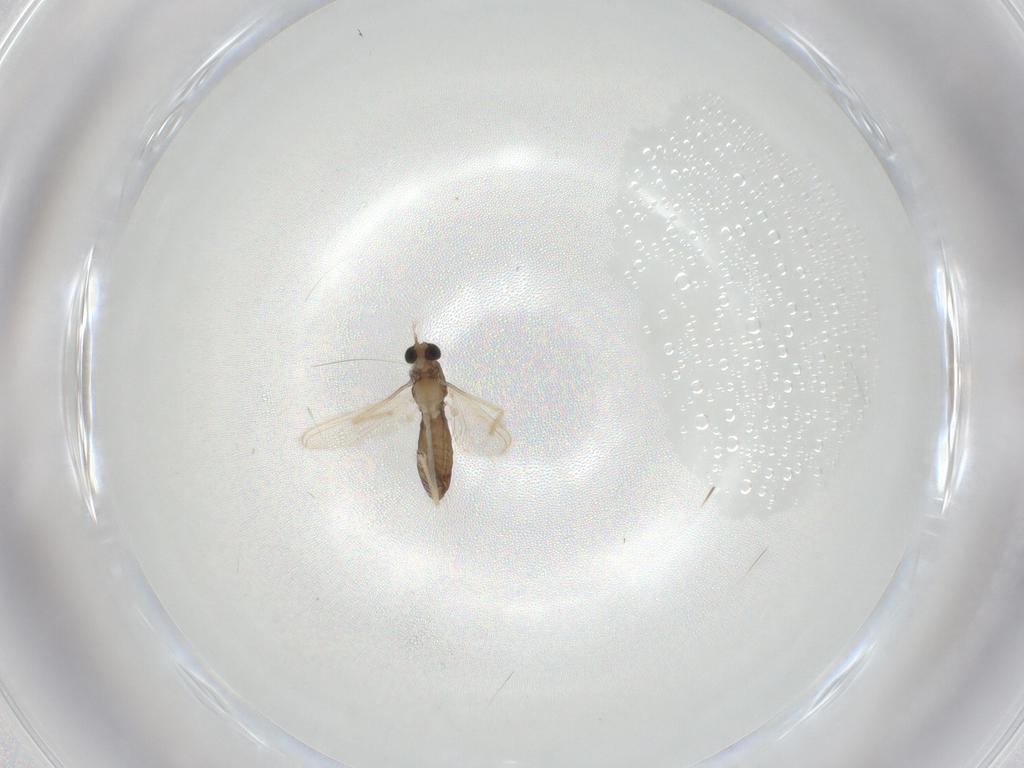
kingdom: Animalia
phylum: Arthropoda
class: Insecta
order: Diptera
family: Chironomidae
